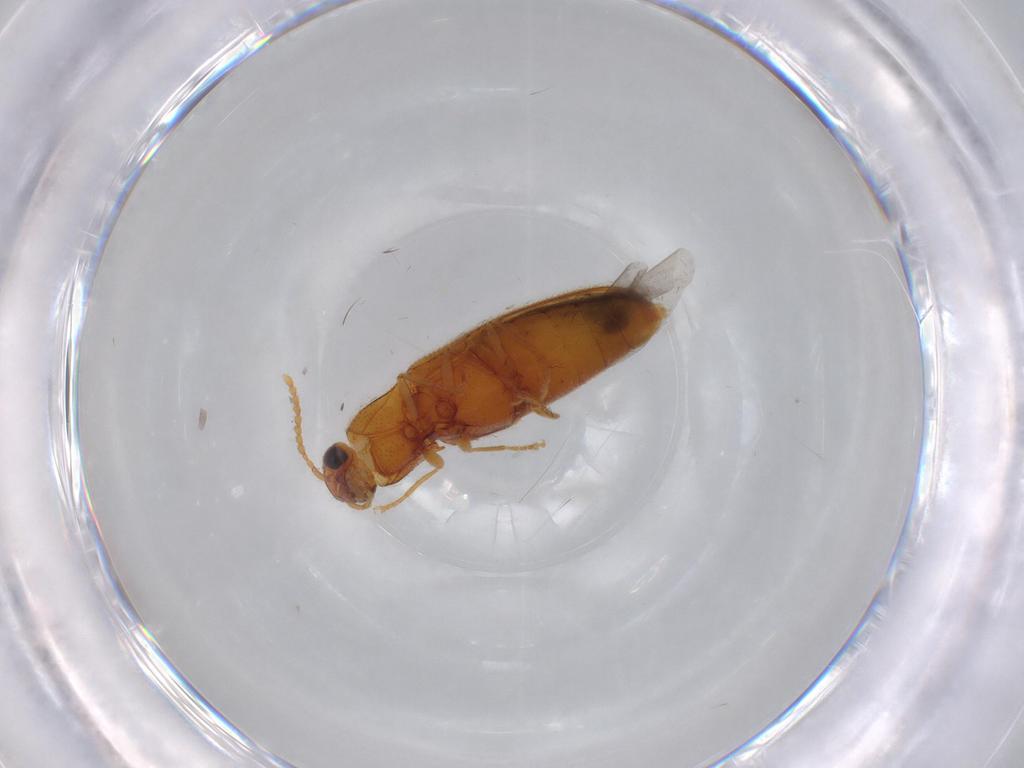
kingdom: Animalia
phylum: Arthropoda
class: Insecta
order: Coleoptera
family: Elateridae
